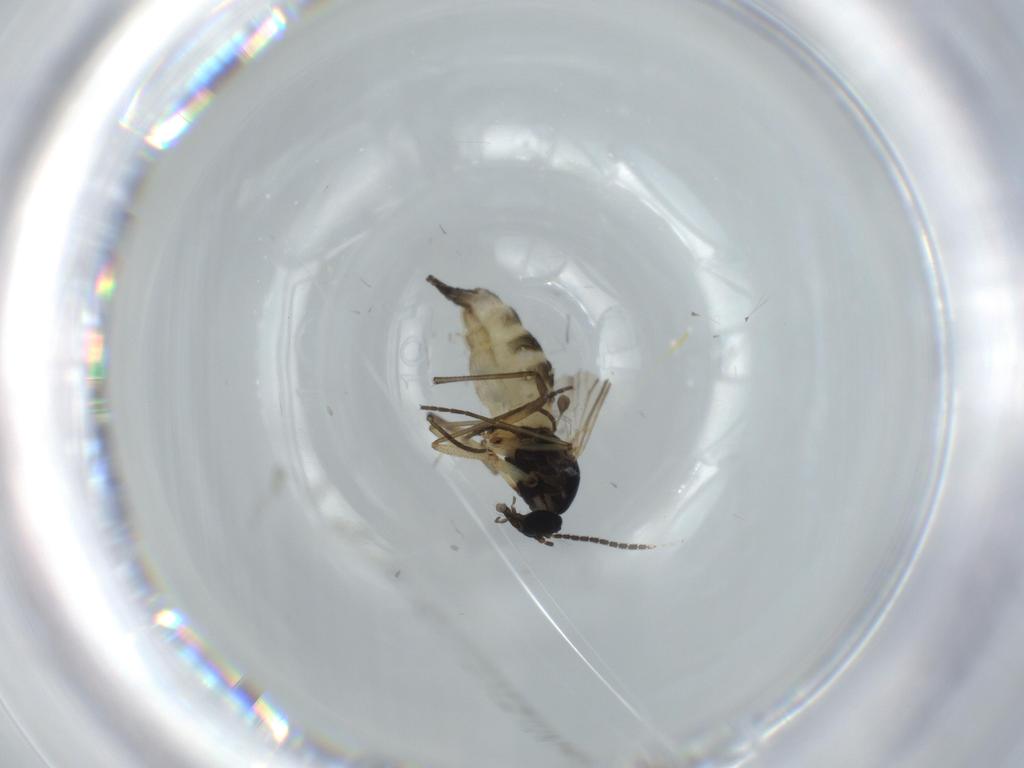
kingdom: Animalia
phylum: Arthropoda
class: Insecta
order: Diptera
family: Sciaridae
